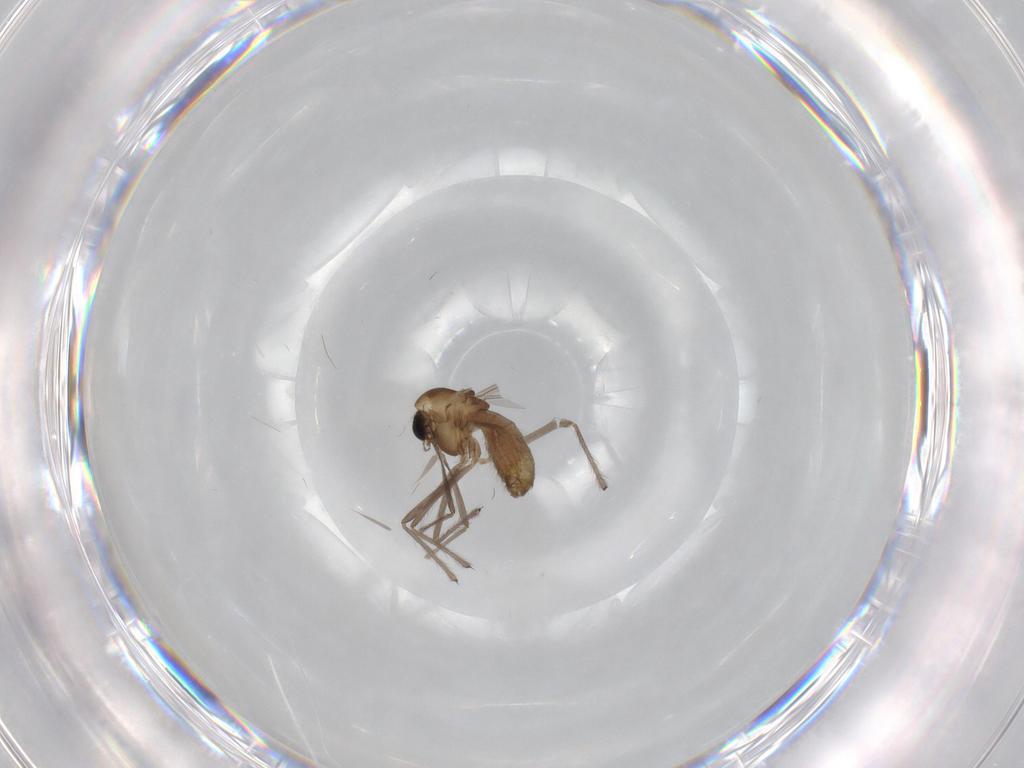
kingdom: Animalia
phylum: Arthropoda
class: Insecta
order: Diptera
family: Chironomidae
